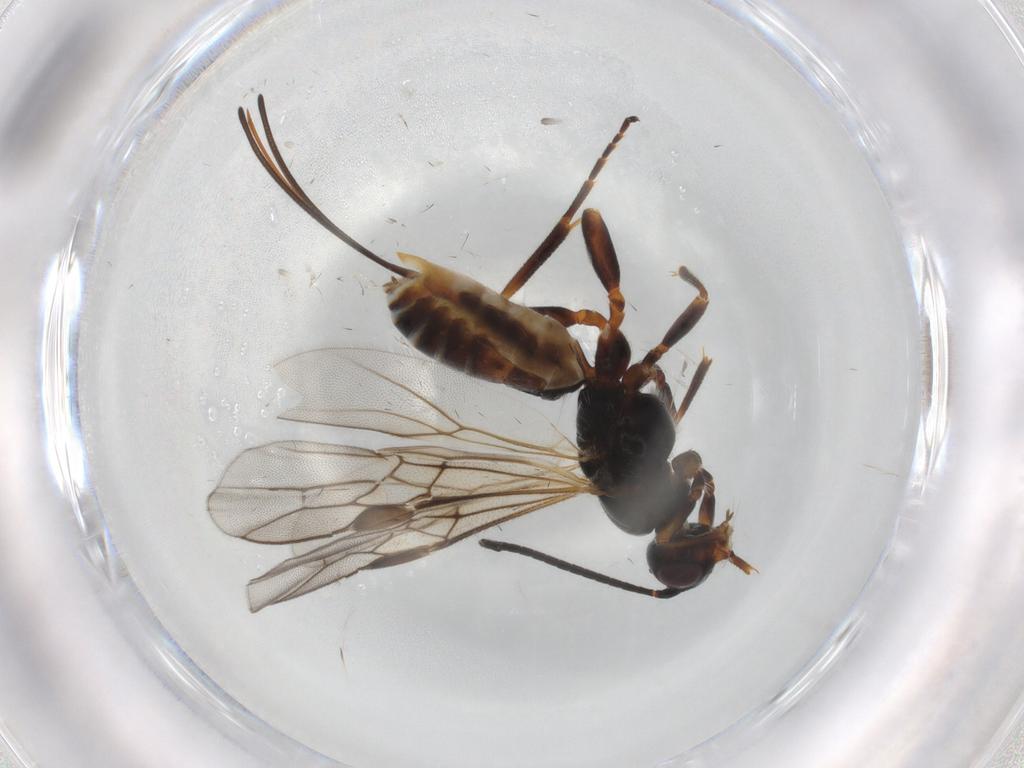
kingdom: Animalia
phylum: Arthropoda
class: Insecta
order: Hymenoptera
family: Braconidae
